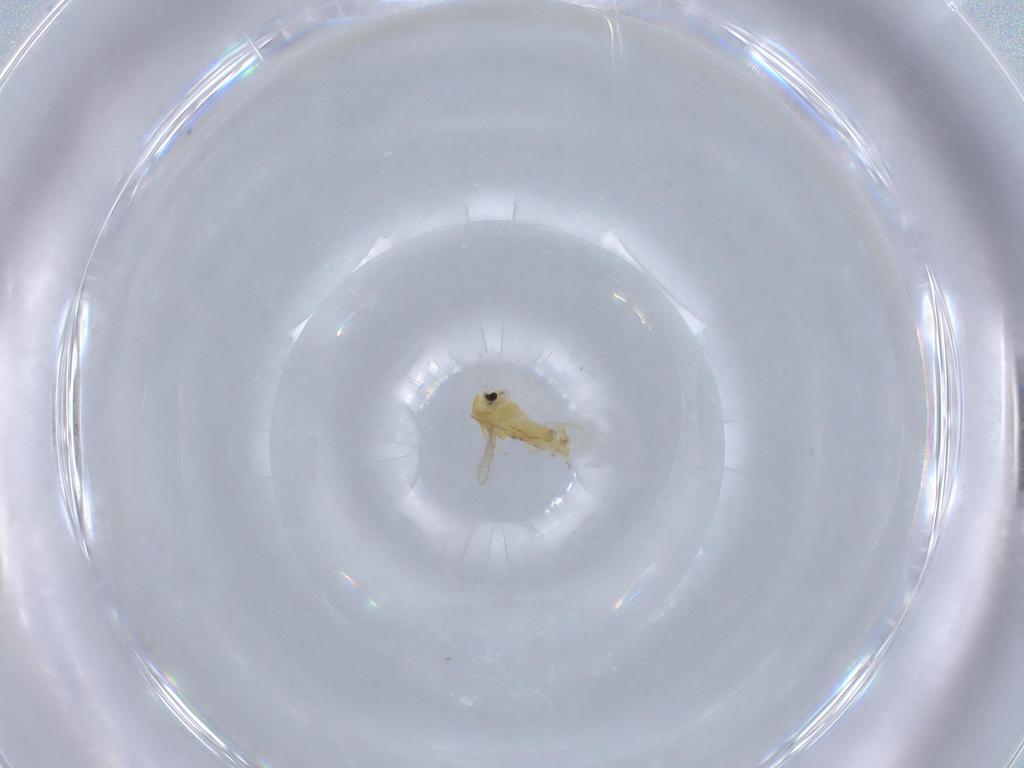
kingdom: Animalia
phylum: Arthropoda
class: Insecta
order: Diptera
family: Chironomidae
